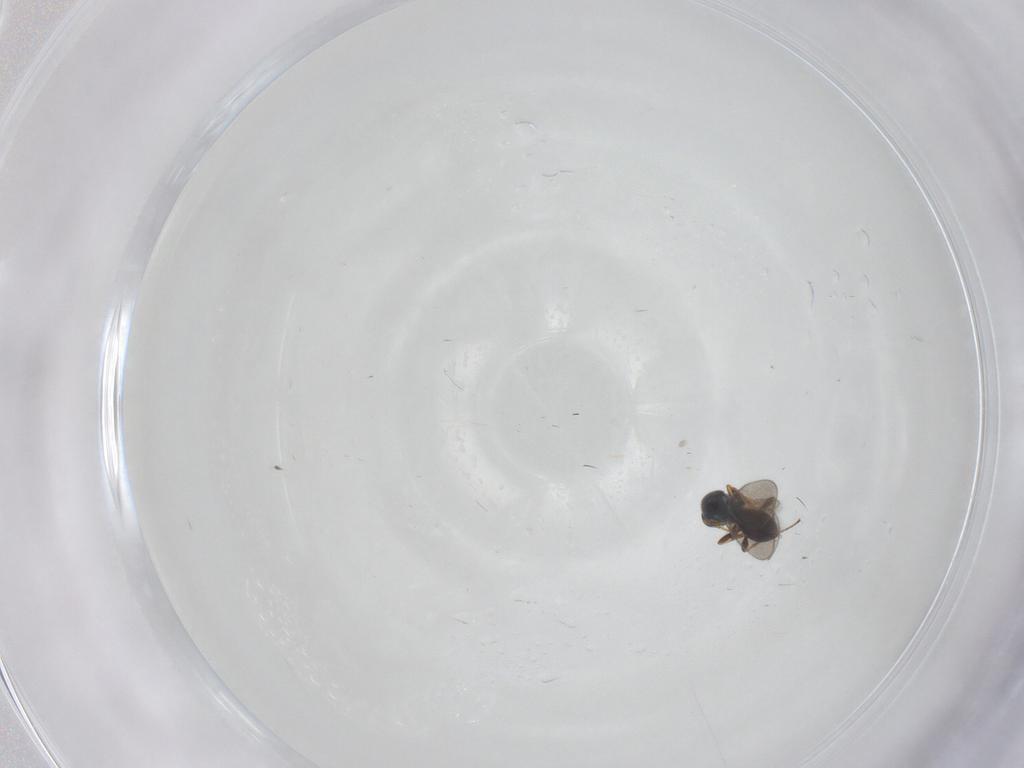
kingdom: Animalia
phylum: Arthropoda
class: Insecta
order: Hymenoptera
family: Platygastridae
